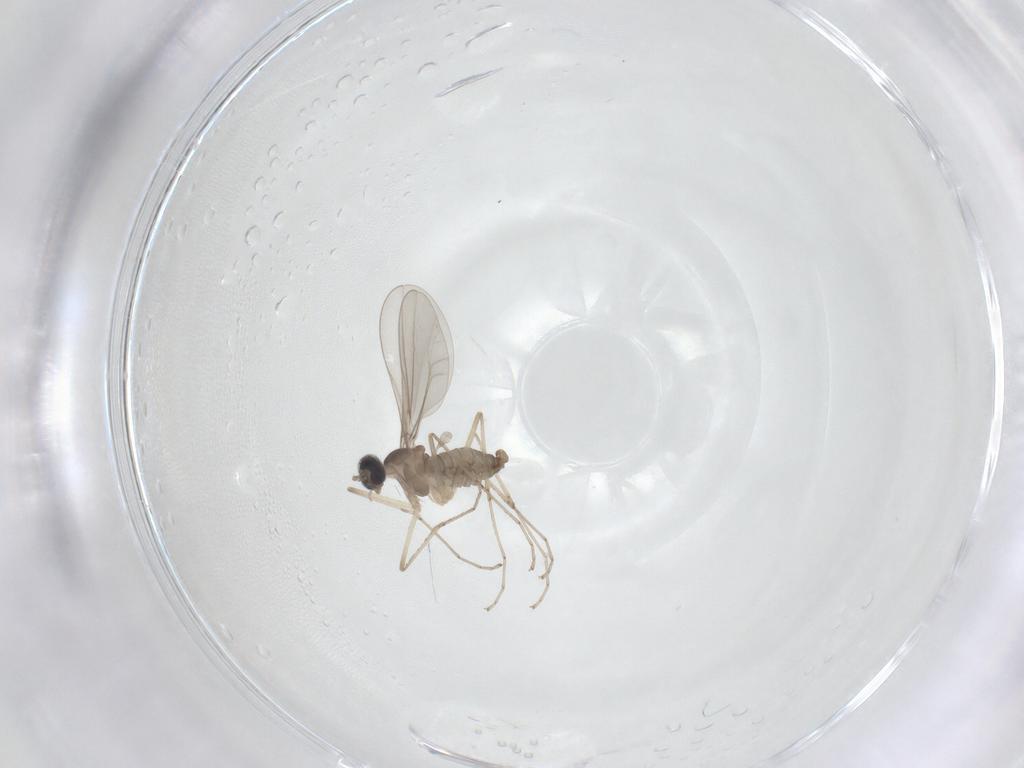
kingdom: Animalia
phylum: Arthropoda
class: Insecta
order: Diptera
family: Cecidomyiidae
